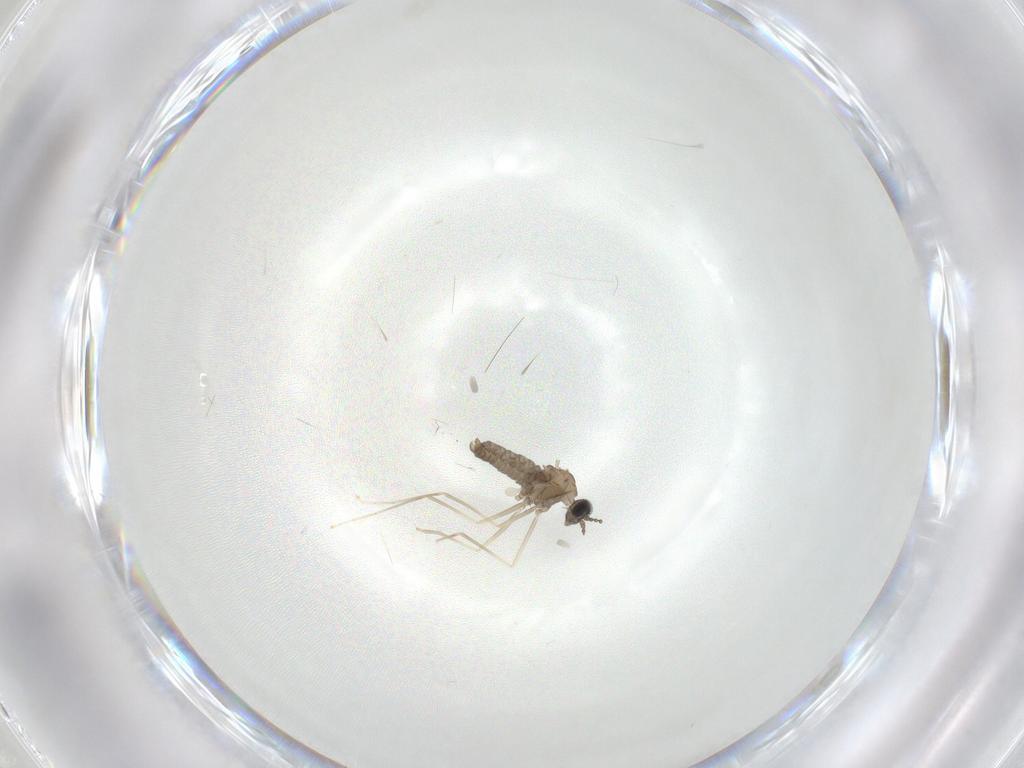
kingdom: Animalia
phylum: Arthropoda
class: Insecta
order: Diptera
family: Cecidomyiidae
